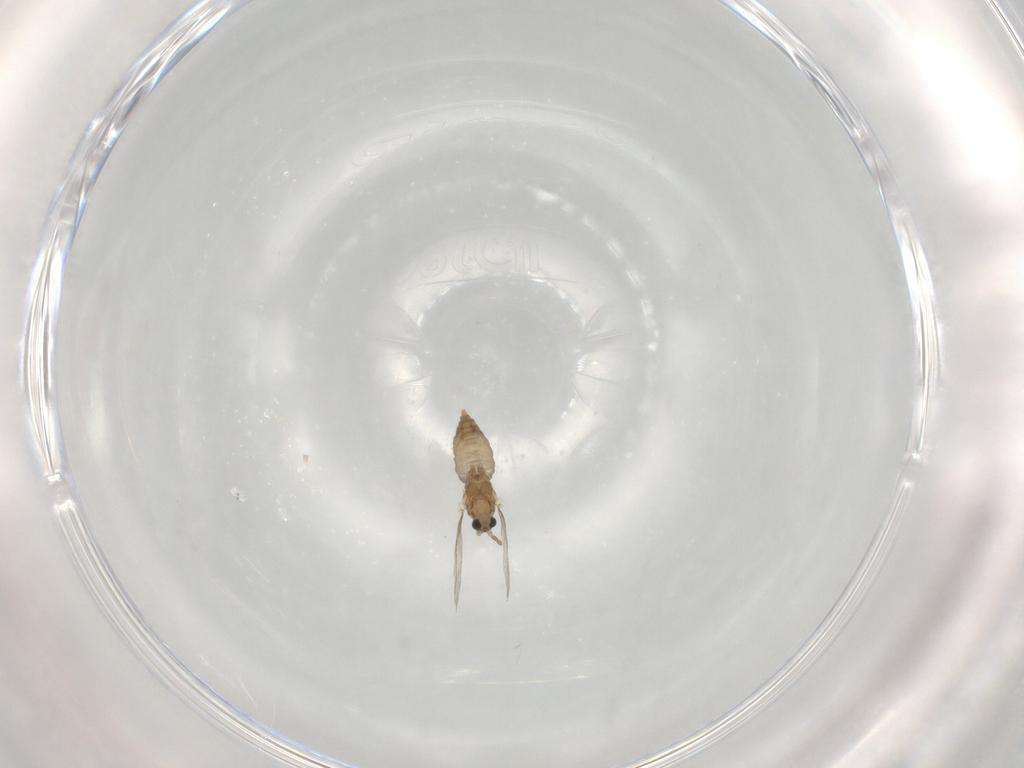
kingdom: Animalia
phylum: Arthropoda
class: Insecta
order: Diptera
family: Cecidomyiidae
